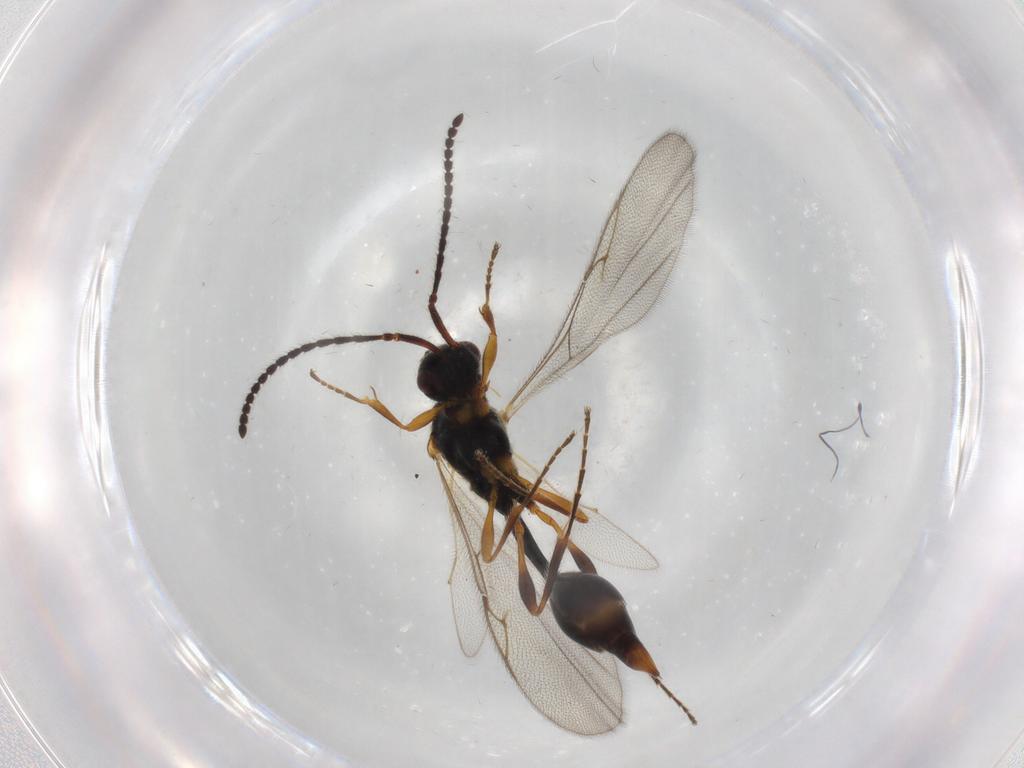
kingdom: Animalia
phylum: Arthropoda
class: Insecta
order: Hymenoptera
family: Diapriidae
